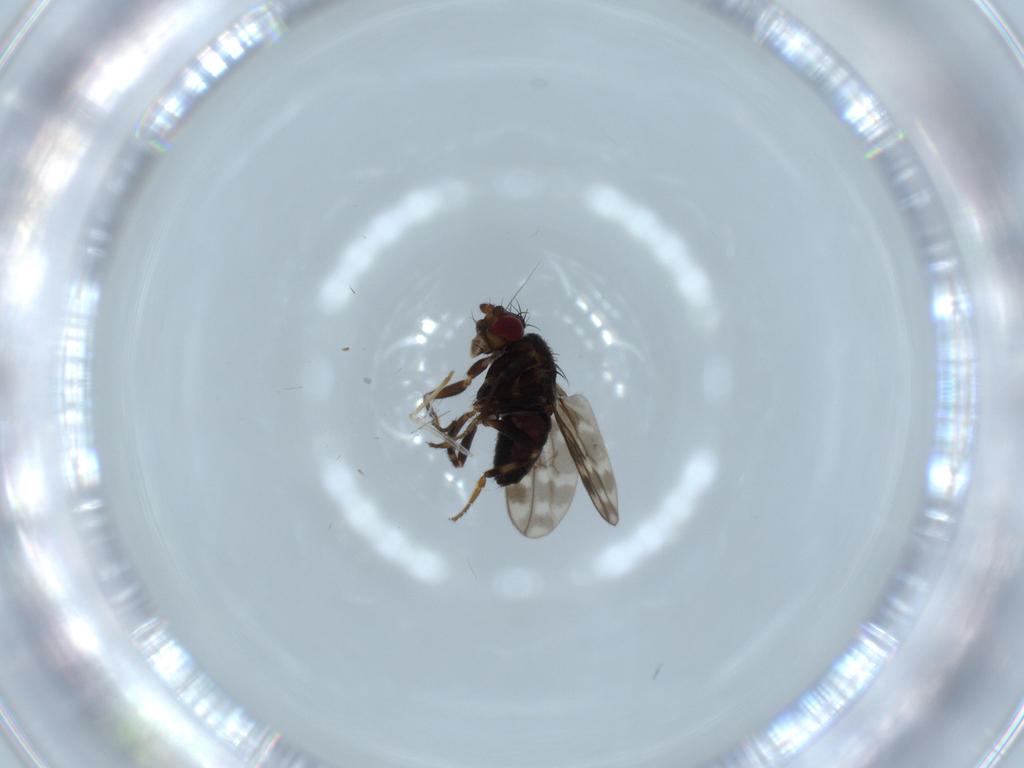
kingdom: Animalia
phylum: Arthropoda
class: Insecta
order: Diptera
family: Sphaeroceridae
